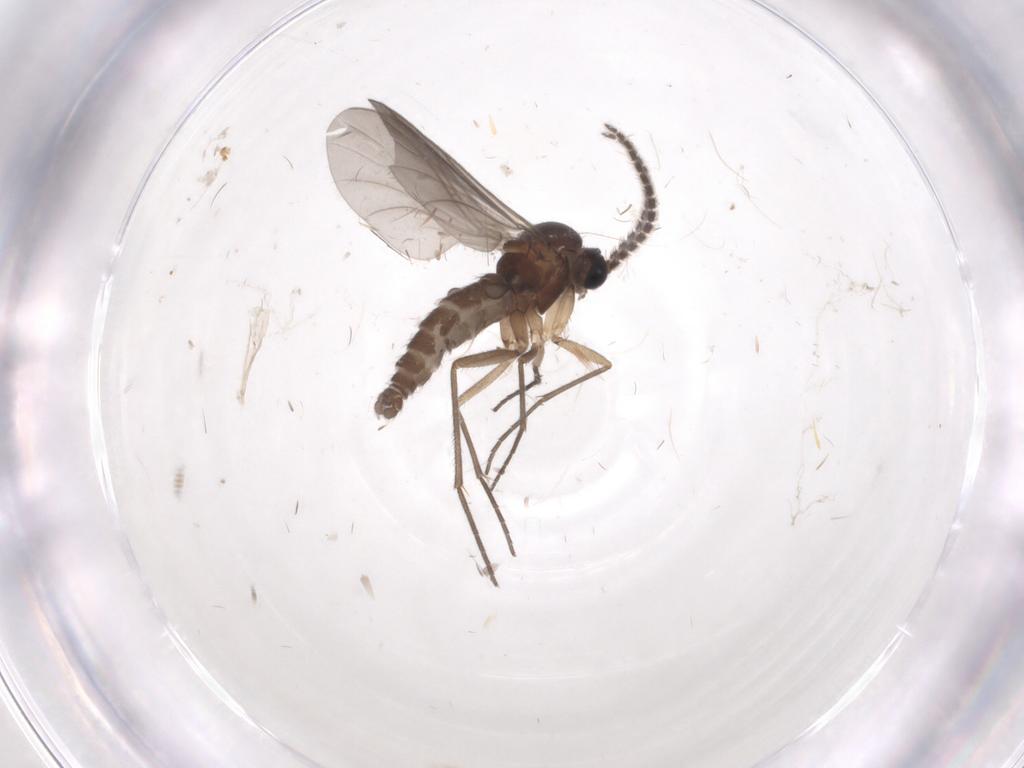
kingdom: Animalia
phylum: Arthropoda
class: Insecta
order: Diptera
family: Sciaridae
